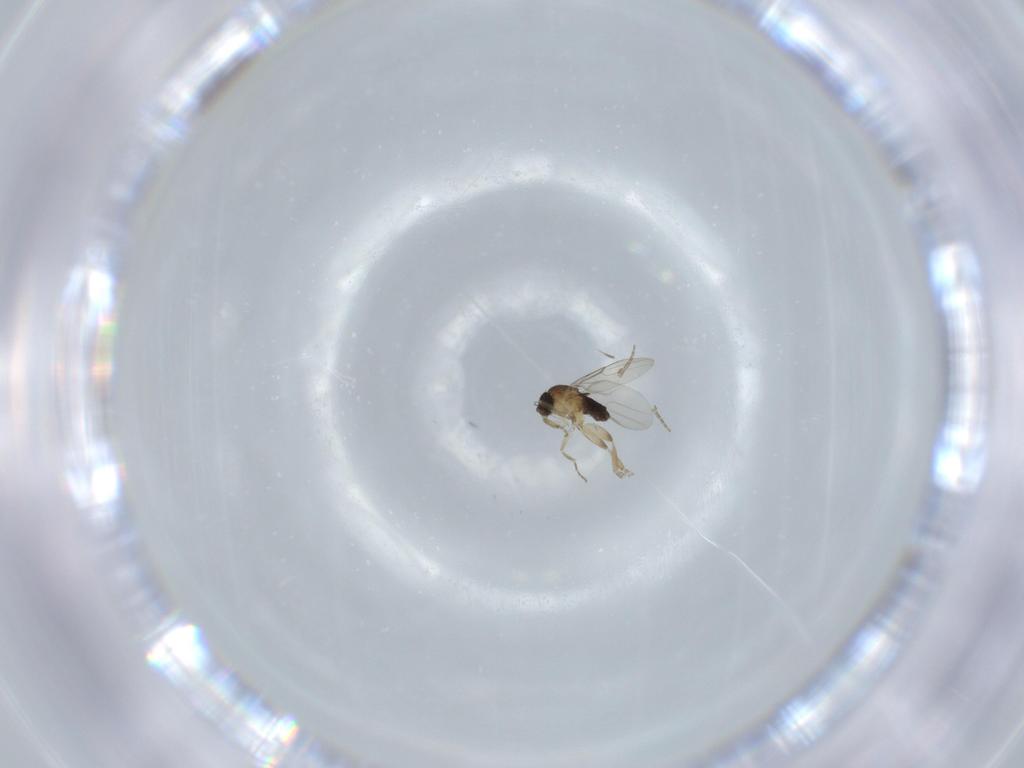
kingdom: Animalia
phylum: Arthropoda
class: Insecta
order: Diptera
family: Phoridae
